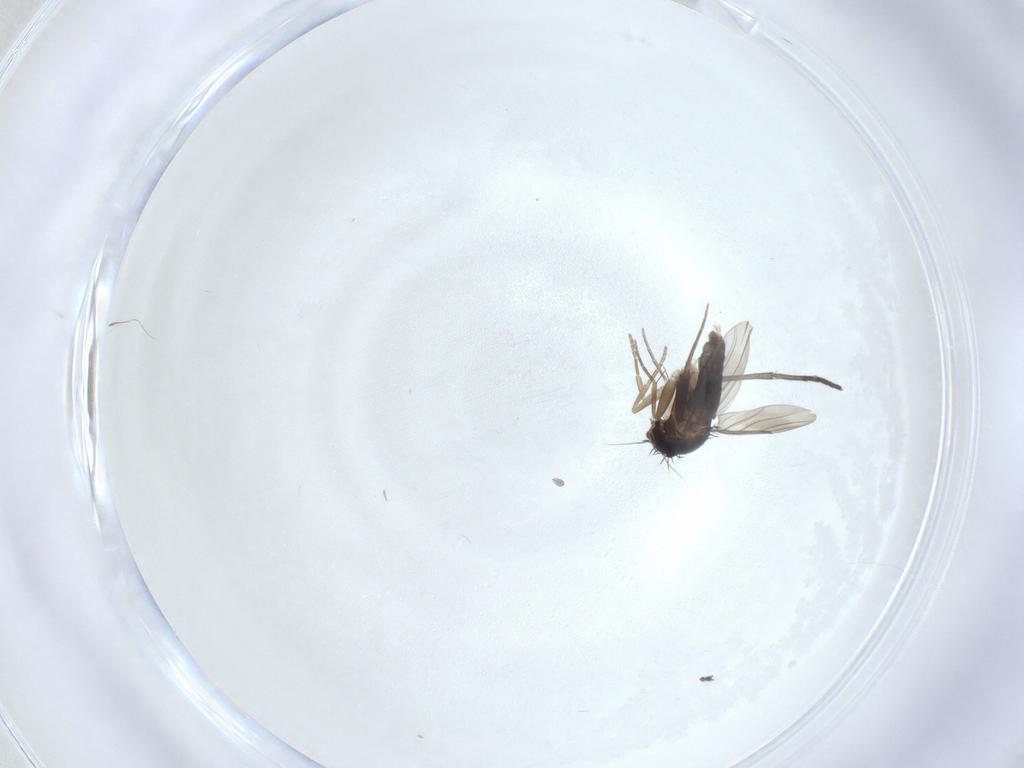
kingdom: Animalia
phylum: Arthropoda
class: Insecta
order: Diptera
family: Phoridae
